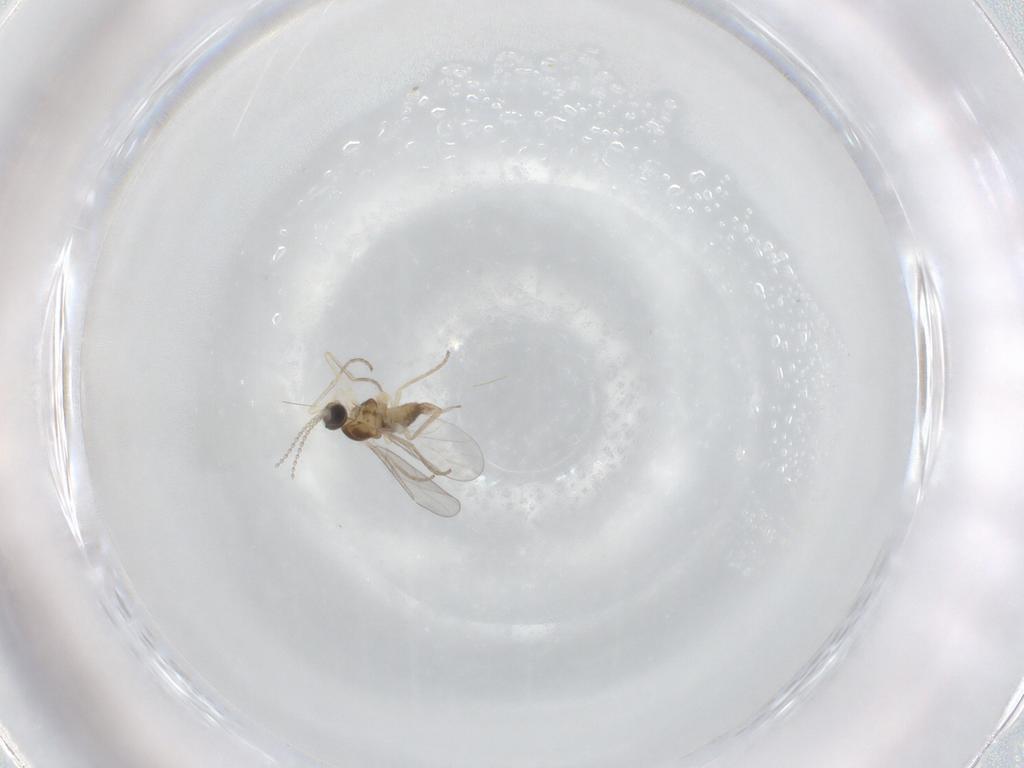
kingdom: Animalia
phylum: Arthropoda
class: Insecta
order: Diptera
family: Cecidomyiidae
